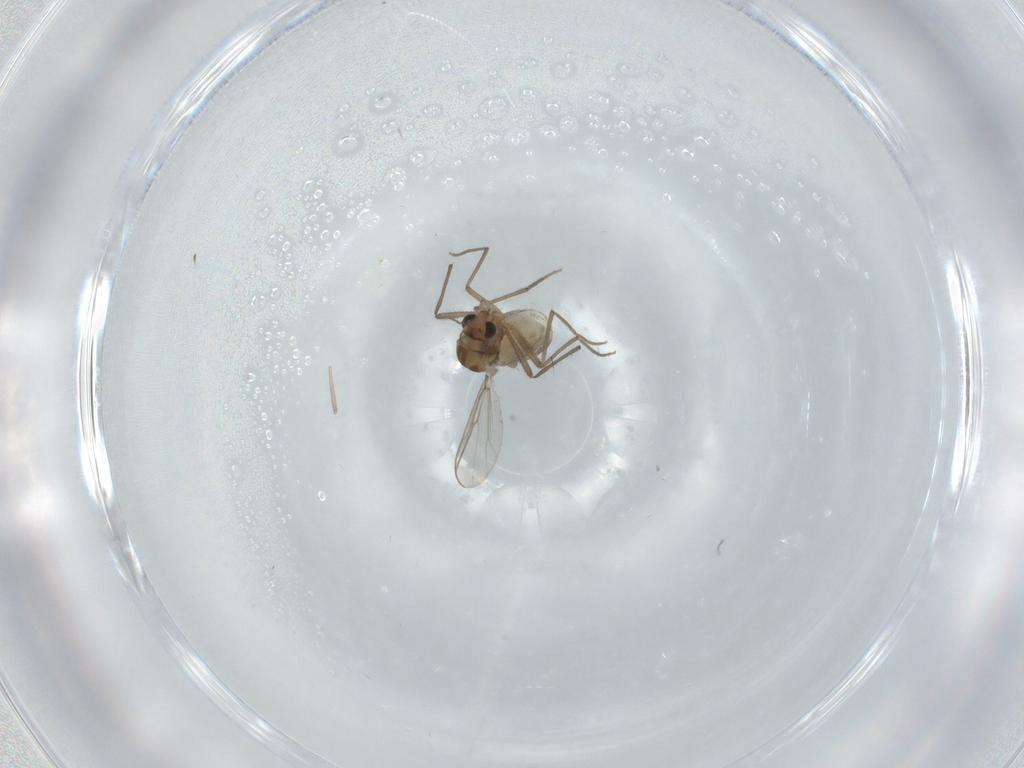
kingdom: Animalia
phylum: Arthropoda
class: Insecta
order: Diptera
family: Chironomidae
